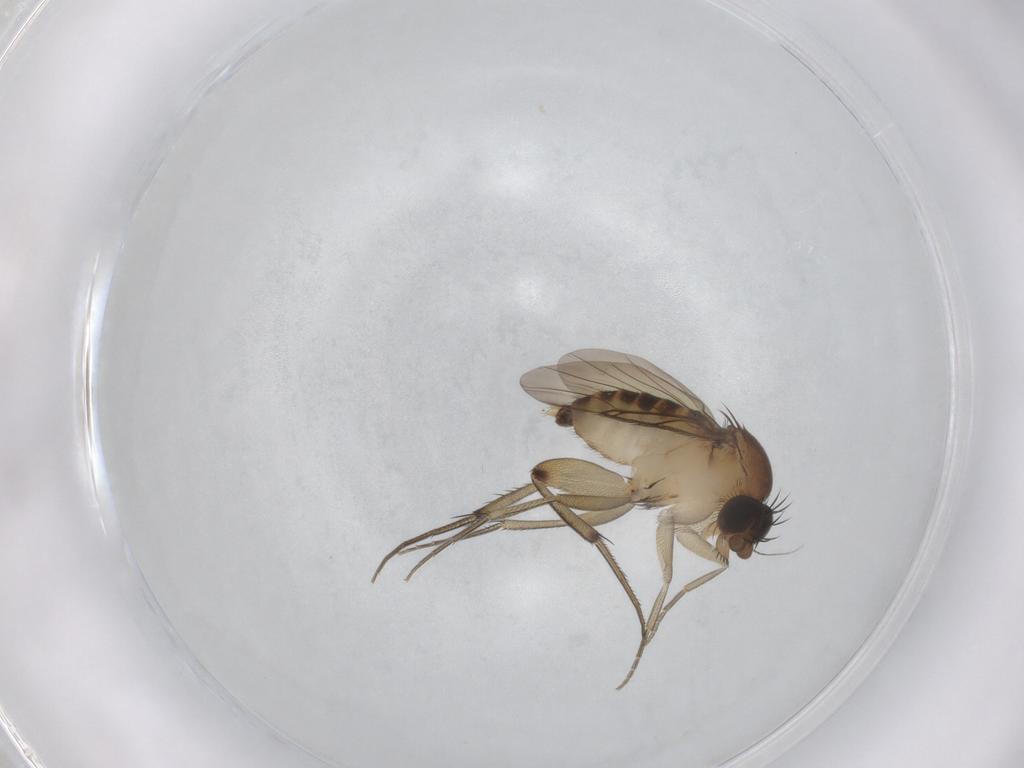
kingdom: Animalia
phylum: Arthropoda
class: Insecta
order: Diptera
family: Phoridae
